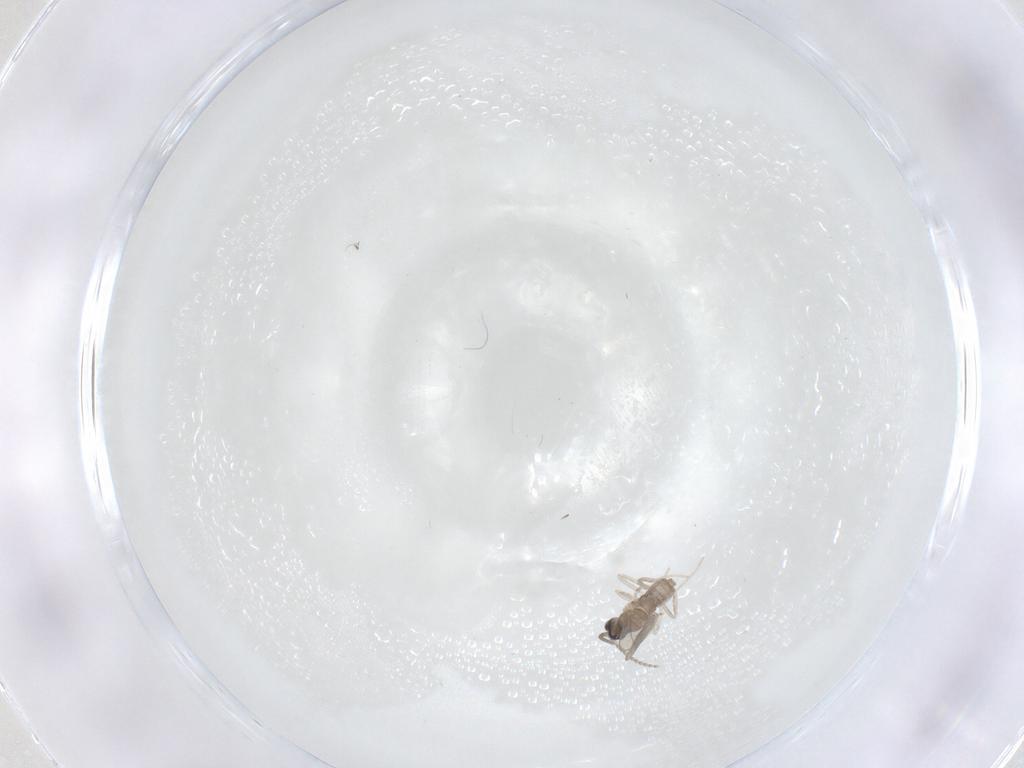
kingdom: Animalia
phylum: Arthropoda
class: Insecta
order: Diptera
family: Cecidomyiidae
